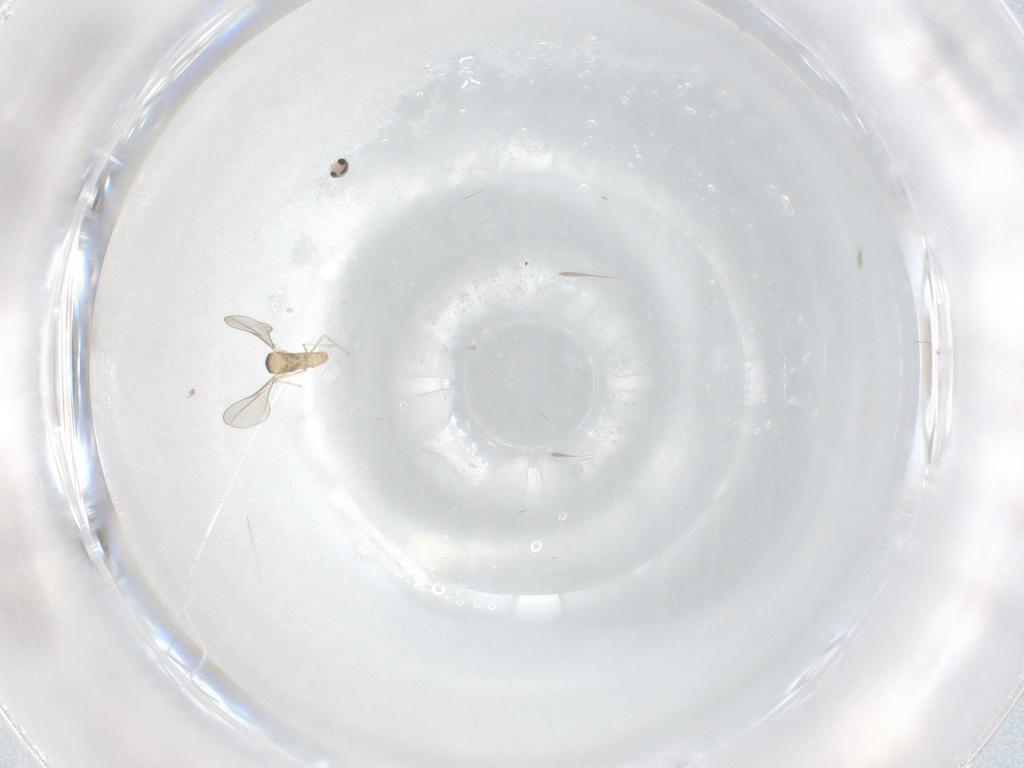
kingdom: Animalia
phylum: Arthropoda
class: Insecta
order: Diptera
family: Cecidomyiidae
